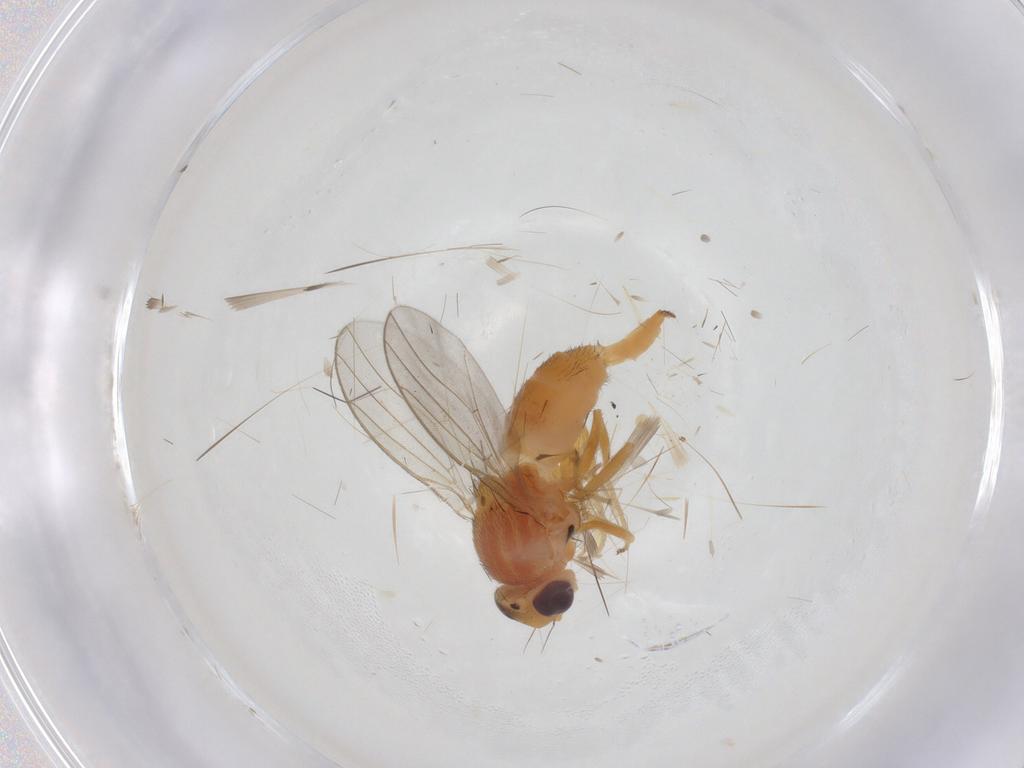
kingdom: Animalia
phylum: Arthropoda
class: Insecta
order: Diptera
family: Chloropidae
